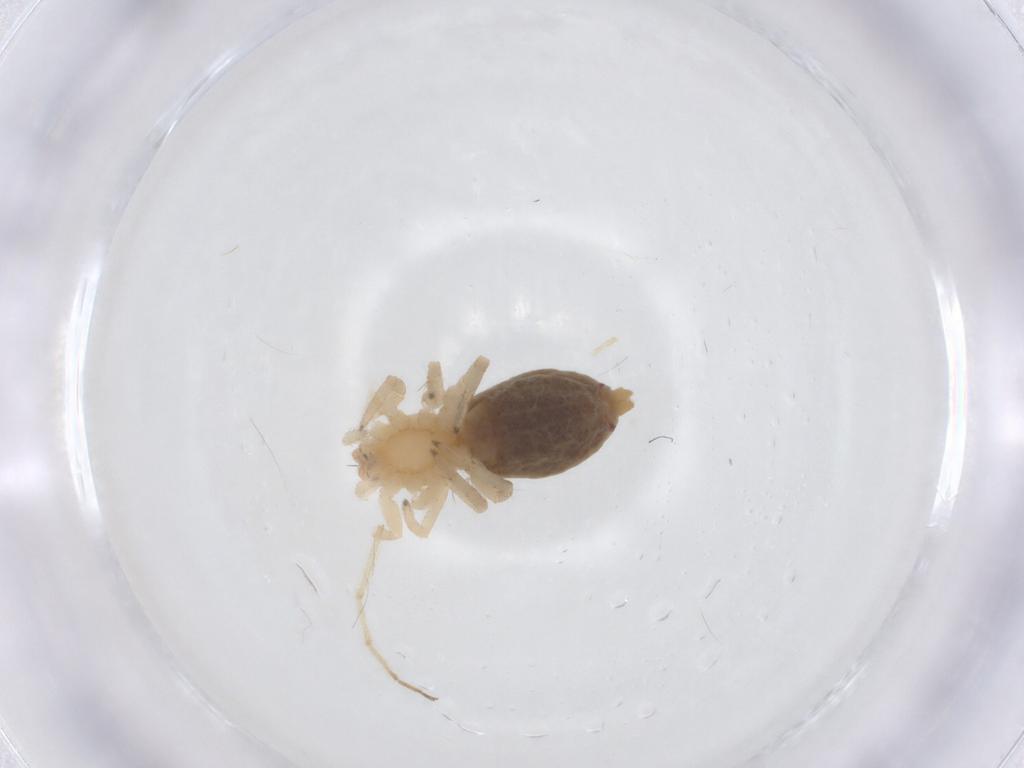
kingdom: Animalia
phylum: Arthropoda
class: Arachnida
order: Araneae
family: Clubionidae
